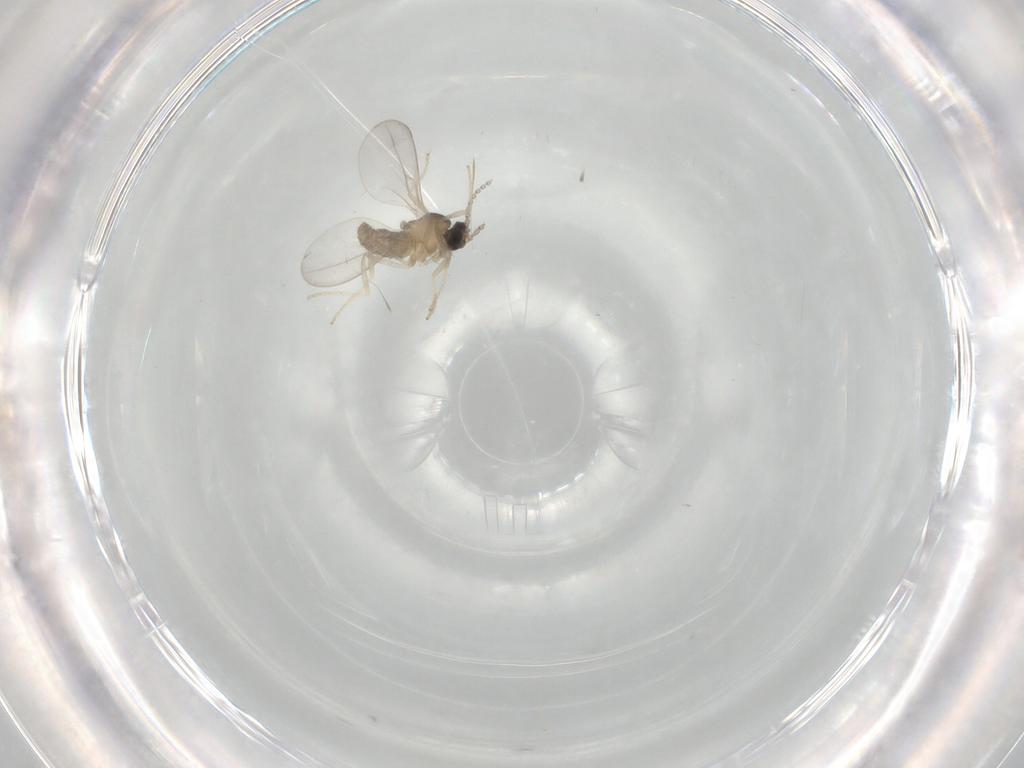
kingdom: Animalia
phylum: Arthropoda
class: Insecta
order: Diptera
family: Cecidomyiidae
